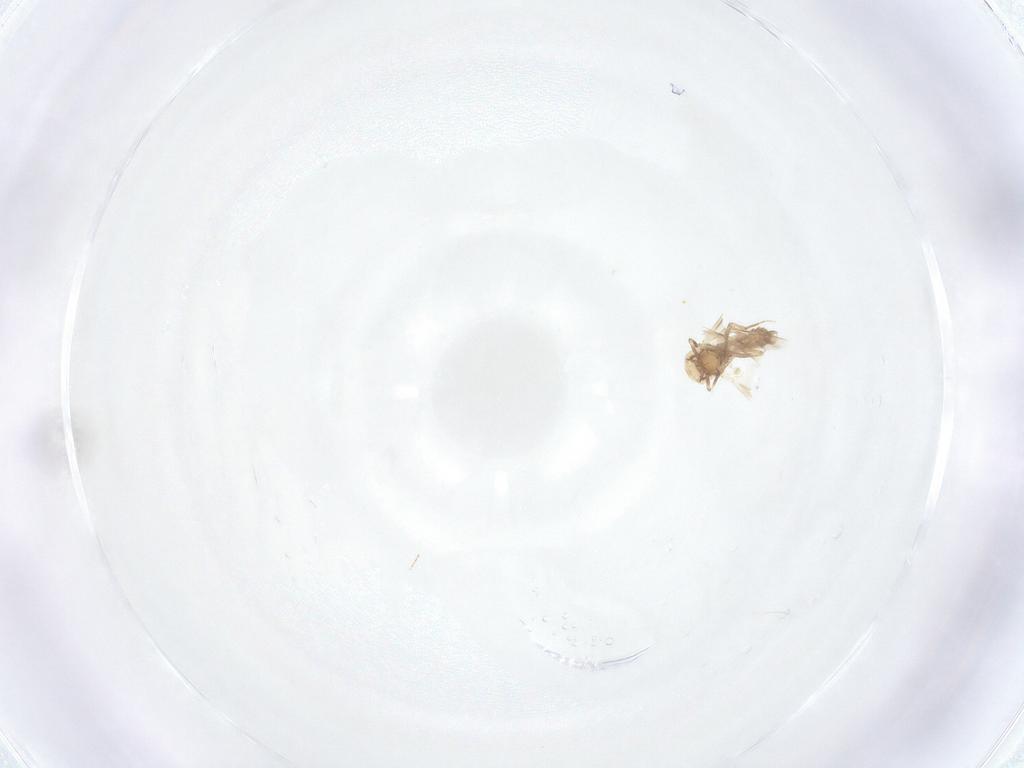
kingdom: Animalia
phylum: Arthropoda
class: Insecta
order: Diptera
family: Ceratopogonidae
